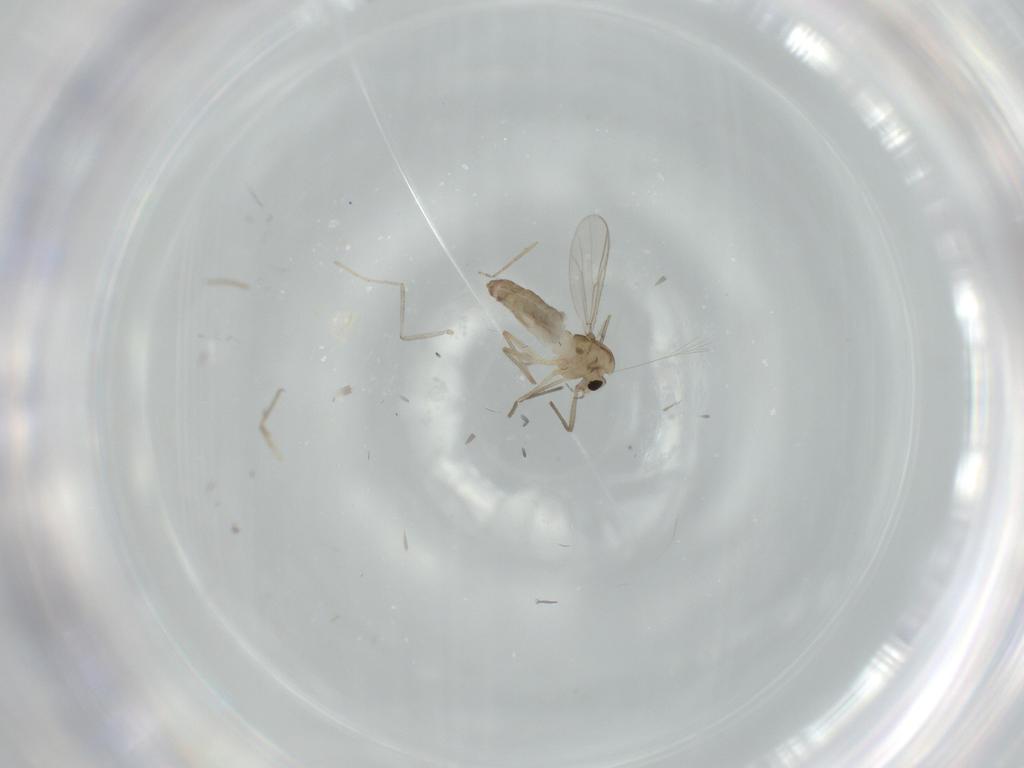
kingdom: Animalia
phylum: Arthropoda
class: Insecta
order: Diptera
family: Chironomidae
